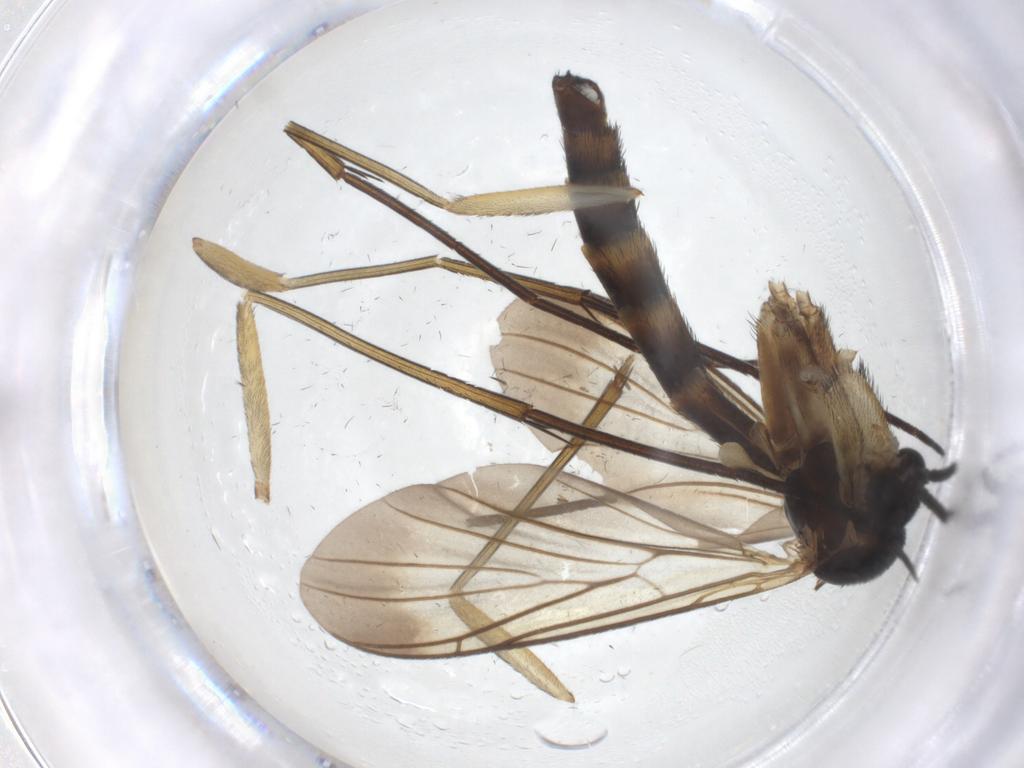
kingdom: Animalia
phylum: Arthropoda
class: Insecta
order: Diptera
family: Keroplatidae
